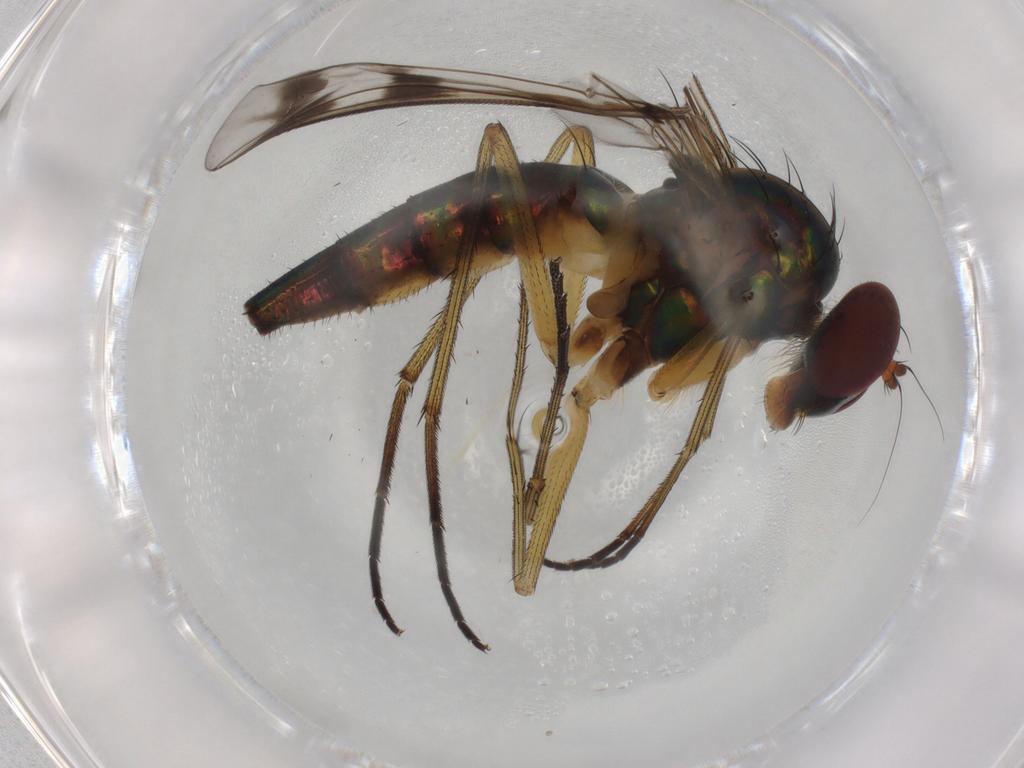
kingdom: Animalia
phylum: Arthropoda
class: Insecta
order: Diptera
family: Dolichopodidae
